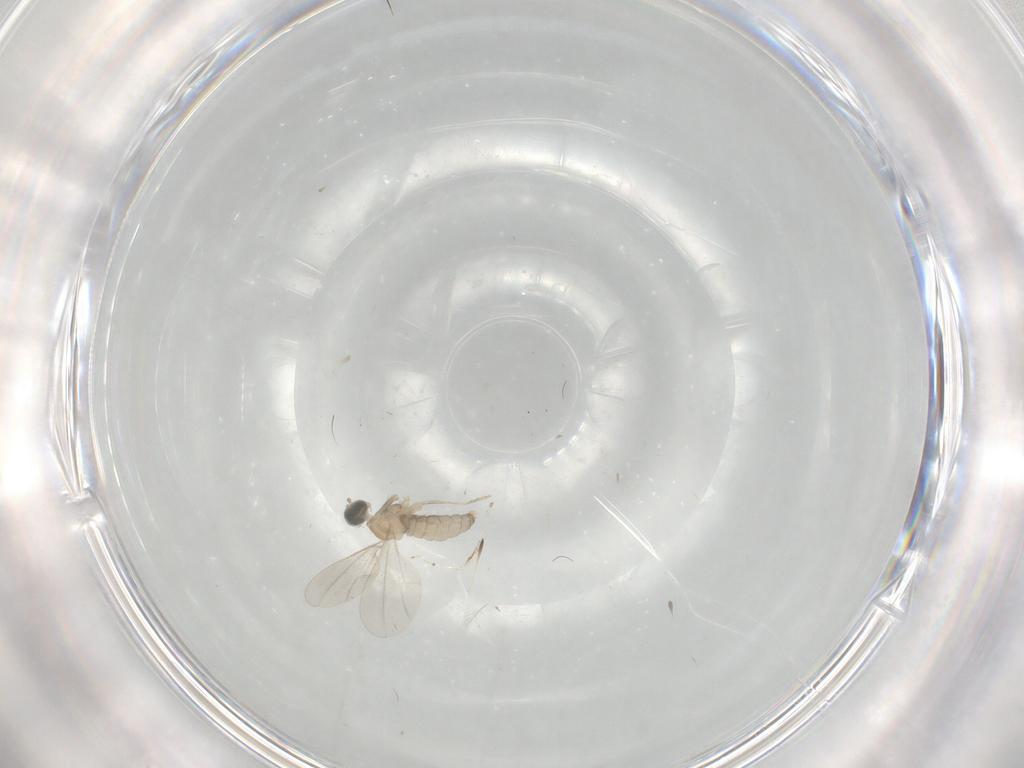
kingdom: Animalia
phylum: Arthropoda
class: Insecta
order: Diptera
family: Cecidomyiidae
